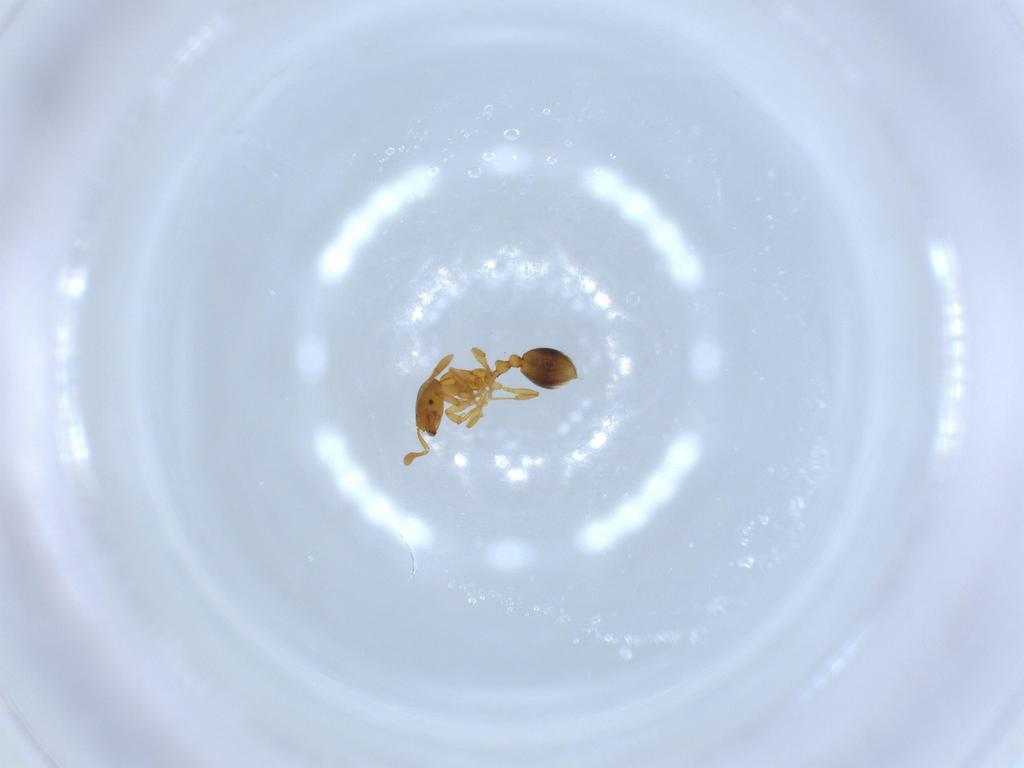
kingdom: Animalia
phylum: Arthropoda
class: Insecta
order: Hymenoptera
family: Formicidae
